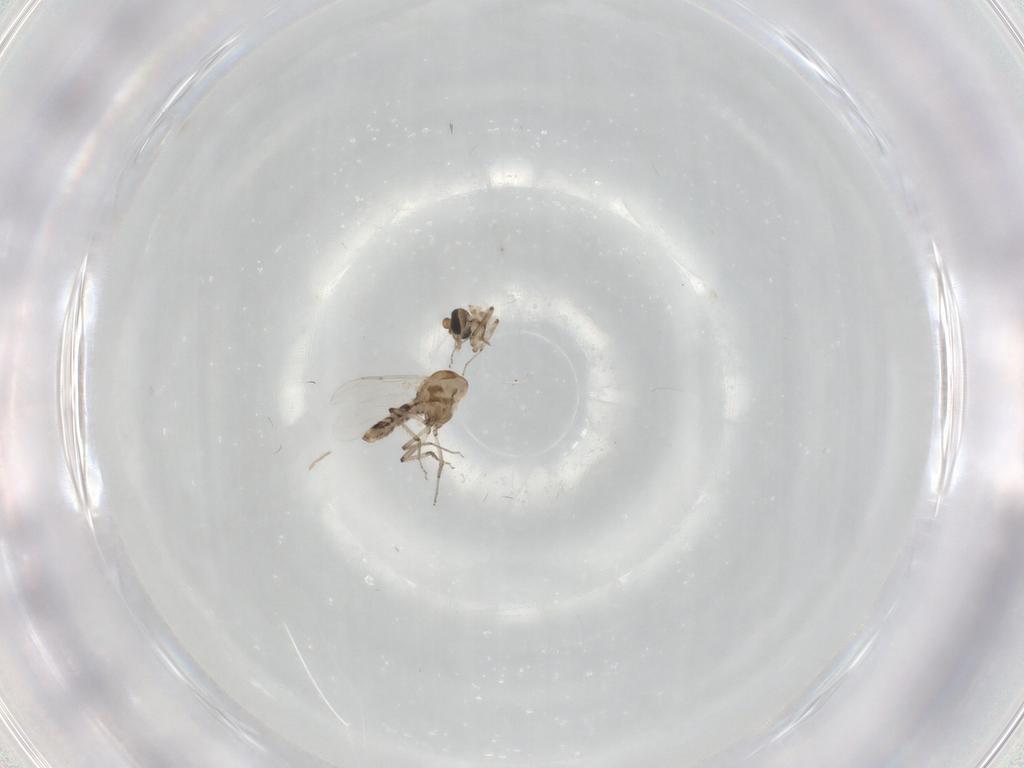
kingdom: Animalia
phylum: Arthropoda
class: Insecta
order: Diptera
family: Ceratopogonidae
